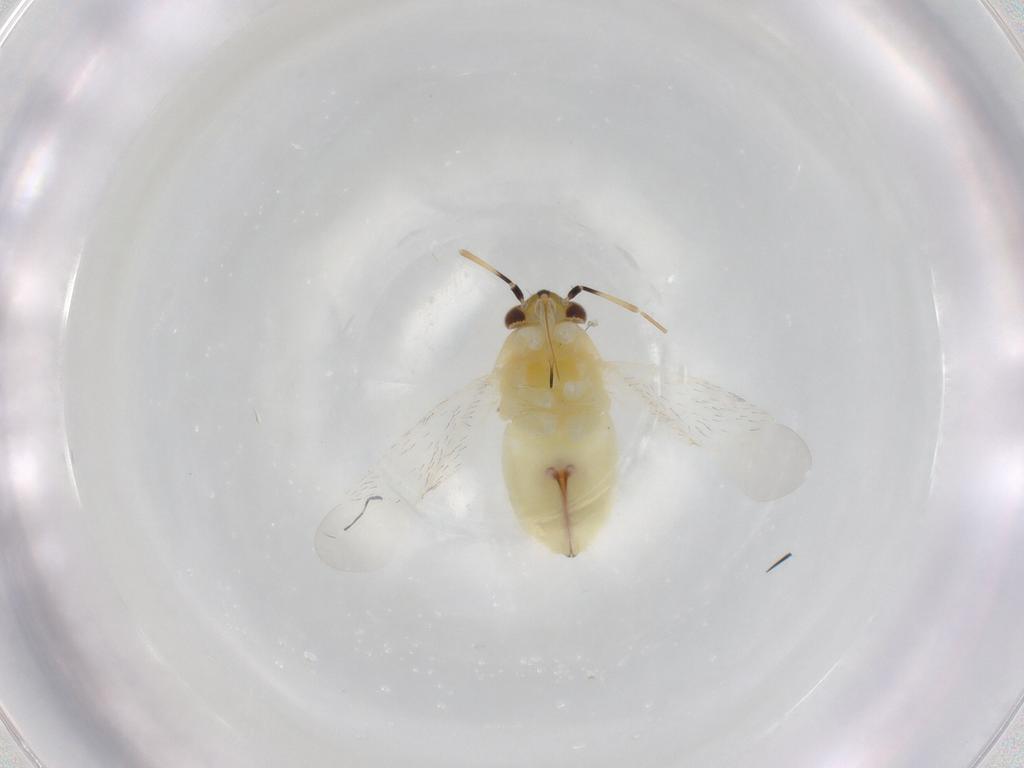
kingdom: Animalia
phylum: Arthropoda
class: Insecta
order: Hemiptera
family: Miridae
